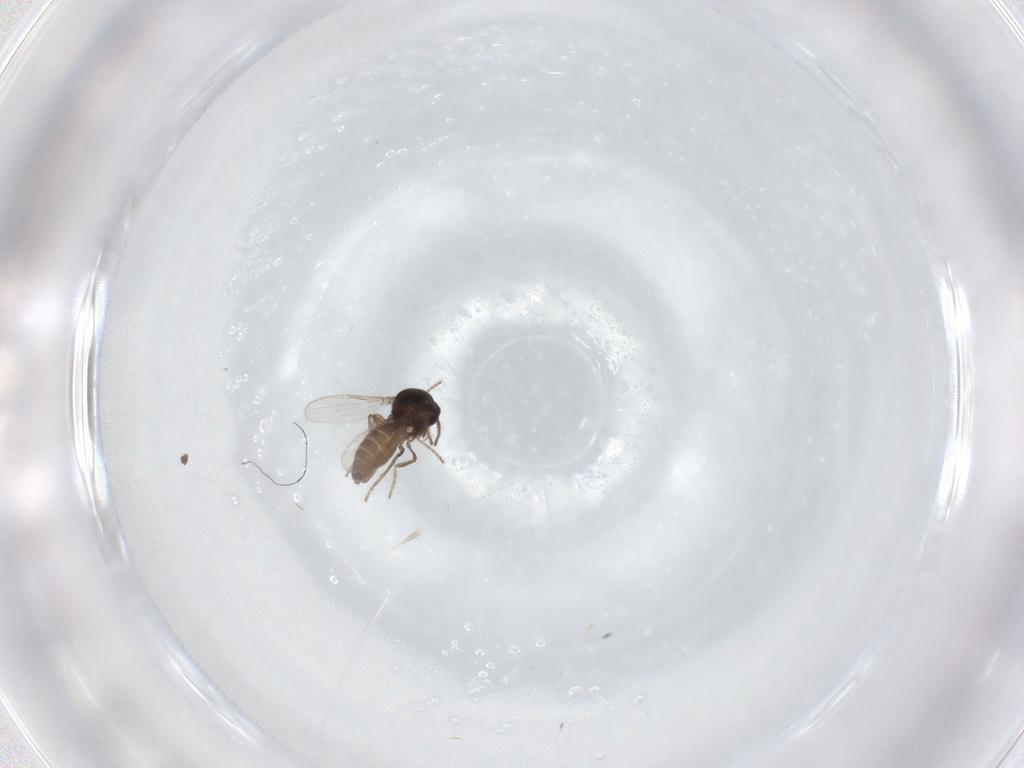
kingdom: Animalia
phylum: Arthropoda
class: Insecta
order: Diptera
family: Ceratopogonidae
